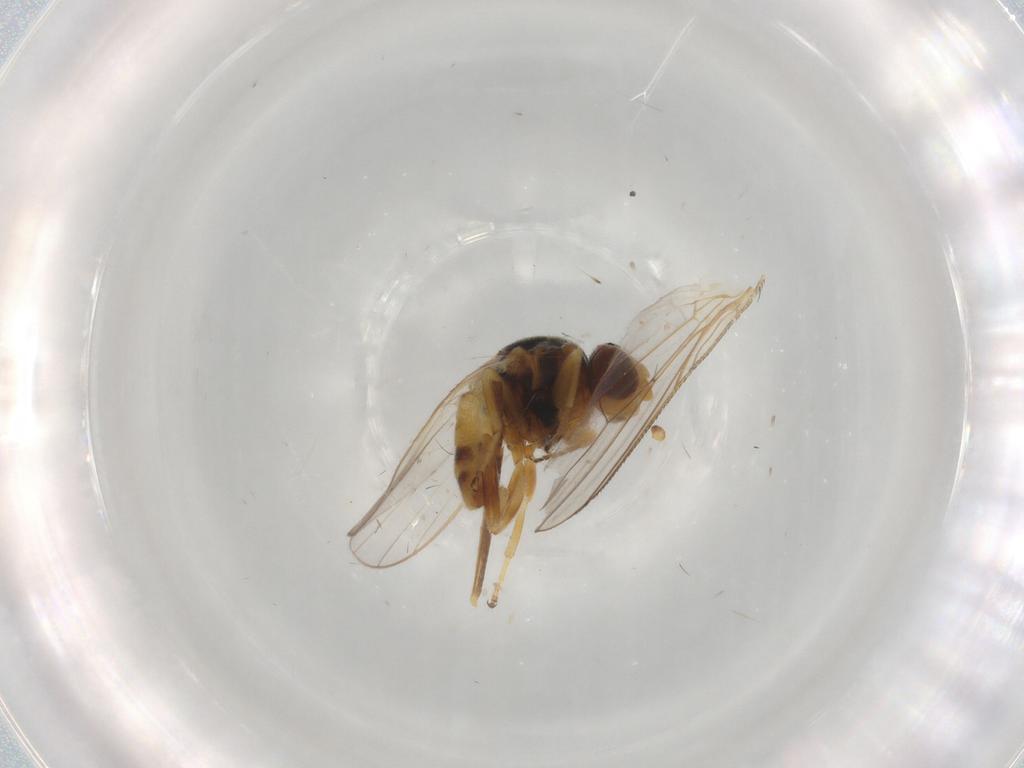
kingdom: Animalia
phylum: Arthropoda
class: Insecta
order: Diptera
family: Chloropidae
